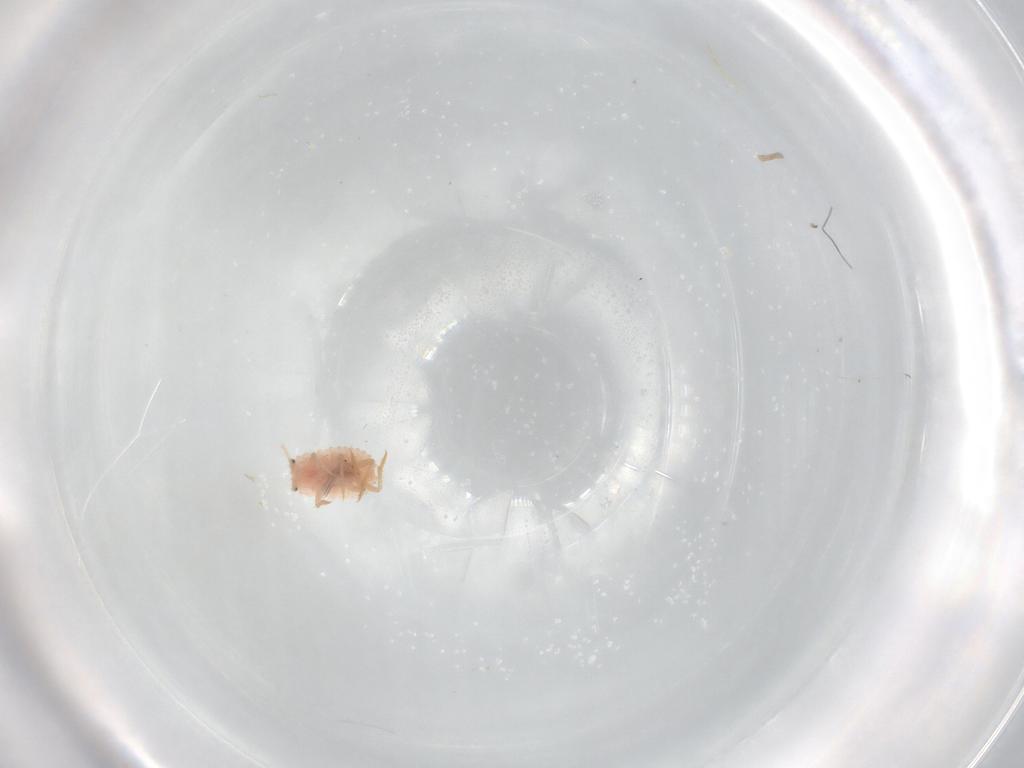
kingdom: Animalia
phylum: Arthropoda
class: Insecta
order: Hemiptera
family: Coccoidea_incertae_sedis
